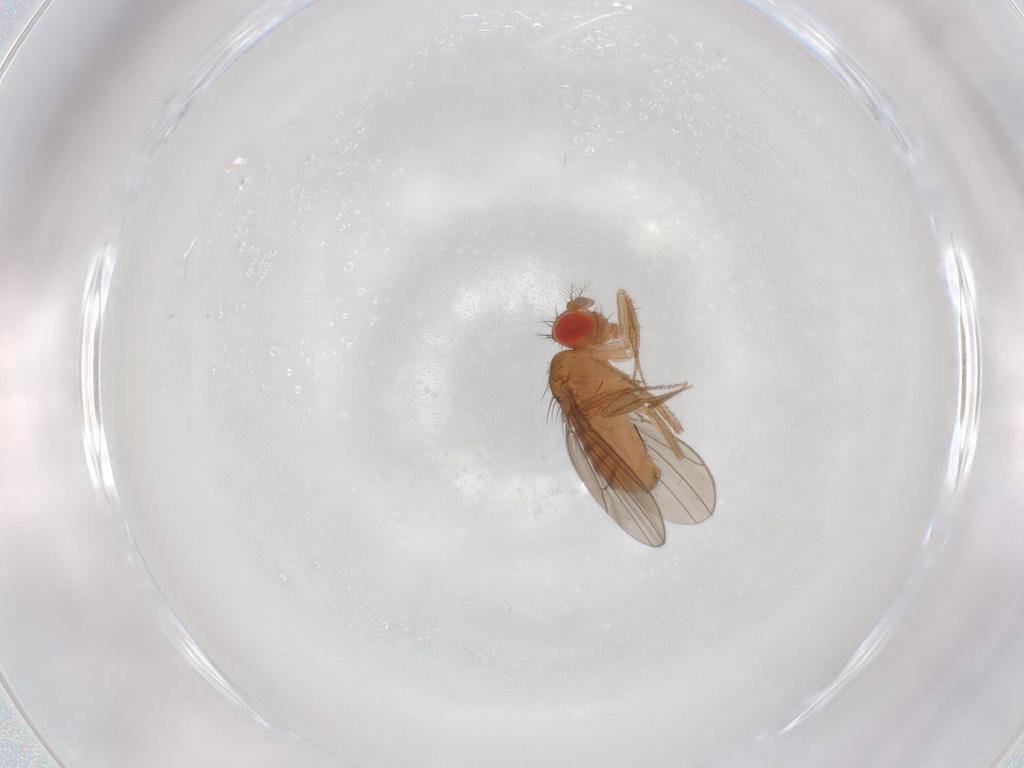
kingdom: Animalia
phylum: Arthropoda
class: Insecta
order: Diptera
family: Drosophilidae
